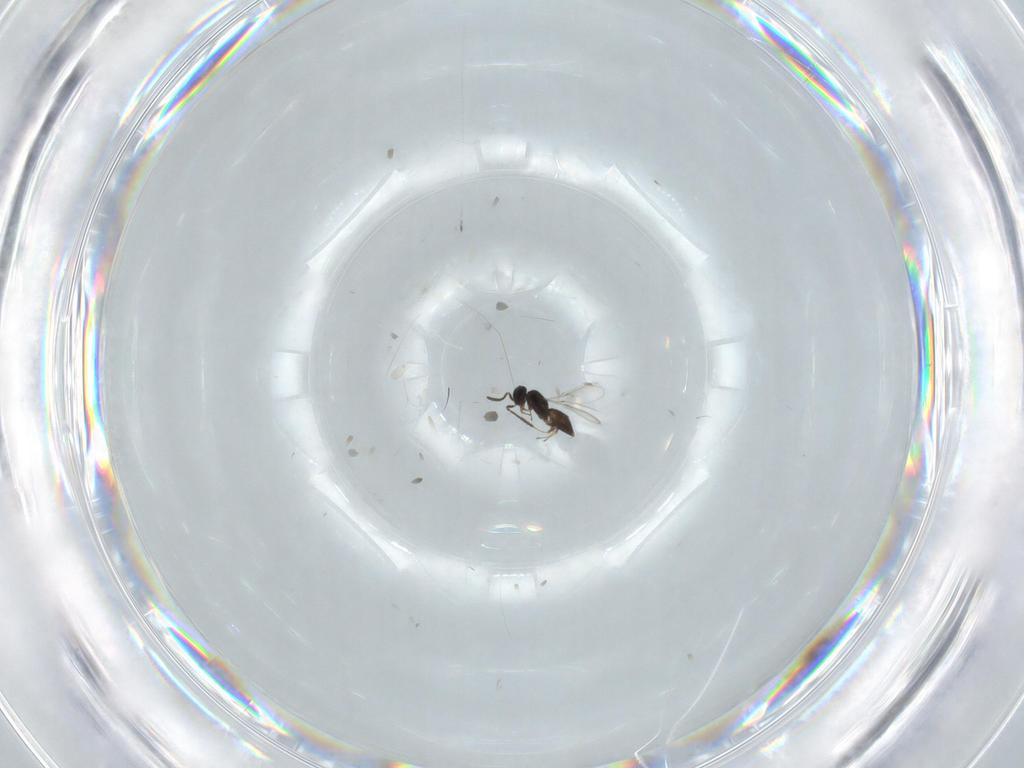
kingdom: Animalia
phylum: Arthropoda
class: Insecta
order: Hymenoptera
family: Scelionidae
